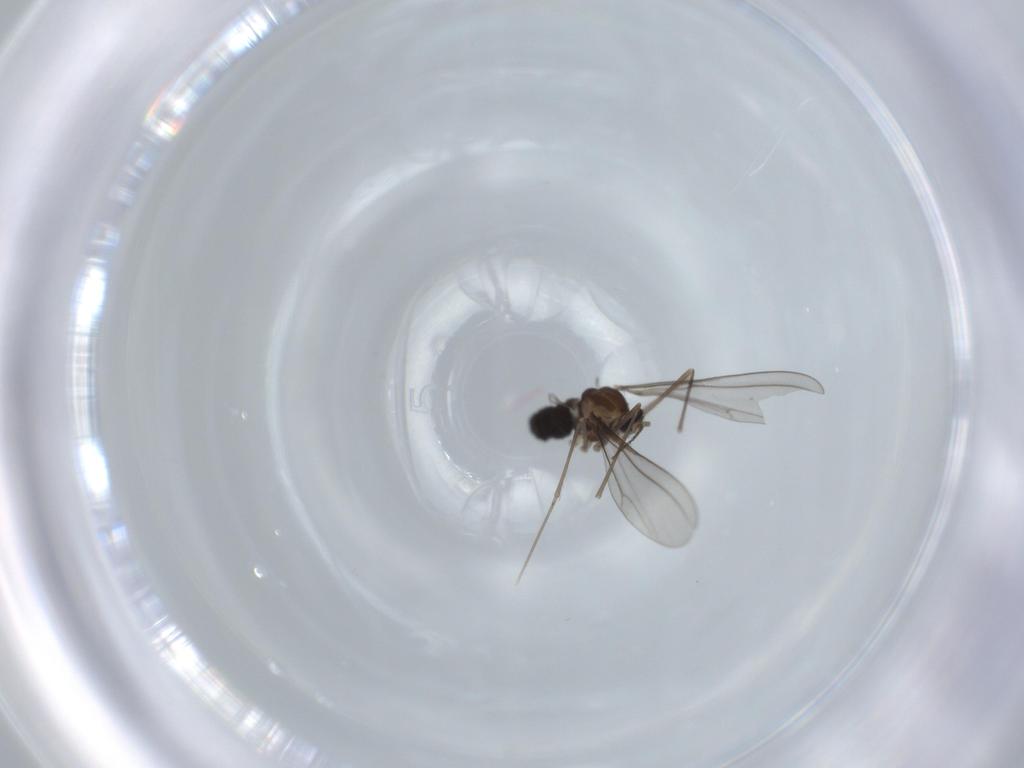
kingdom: Animalia
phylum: Arthropoda
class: Insecta
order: Diptera
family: Cecidomyiidae
